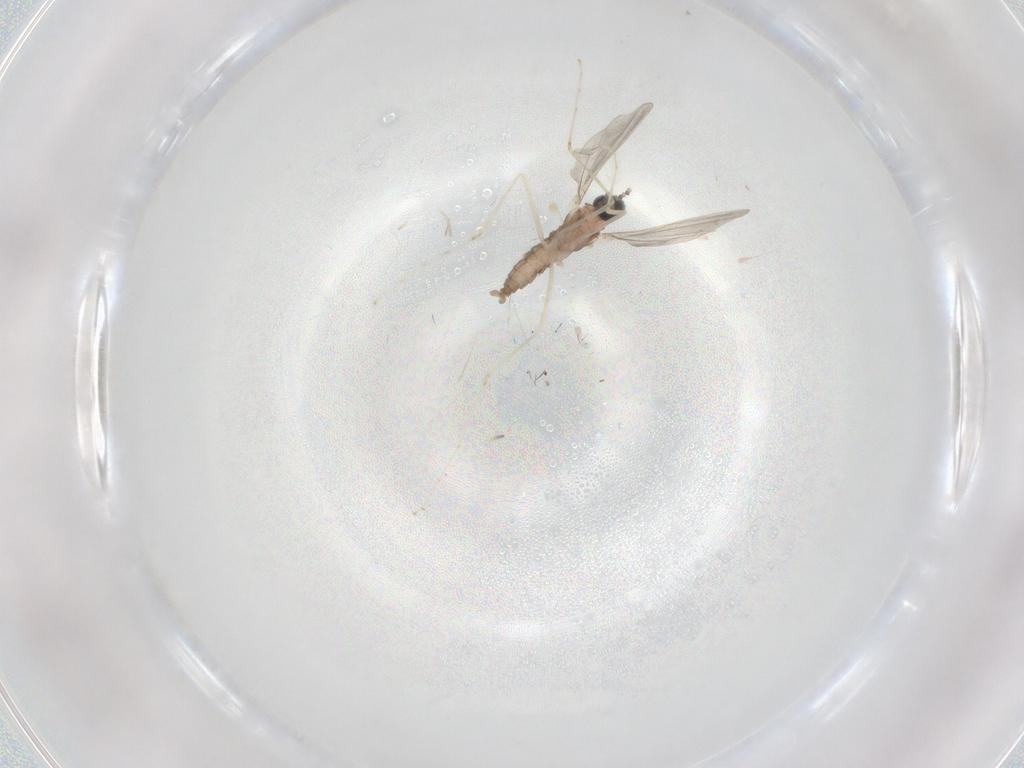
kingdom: Animalia
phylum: Arthropoda
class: Insecta
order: Diptera
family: Cecidomyiidae
